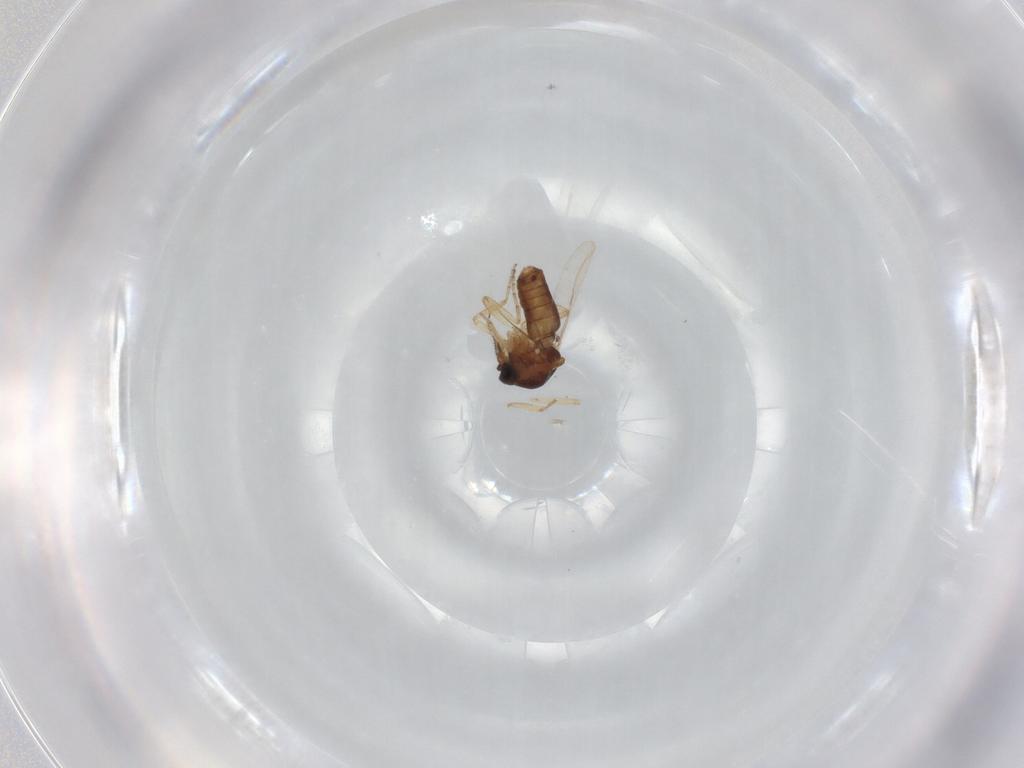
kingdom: Animalia
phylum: Arthropoda
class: Insecta
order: Diptera
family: Ceratopogonidae
